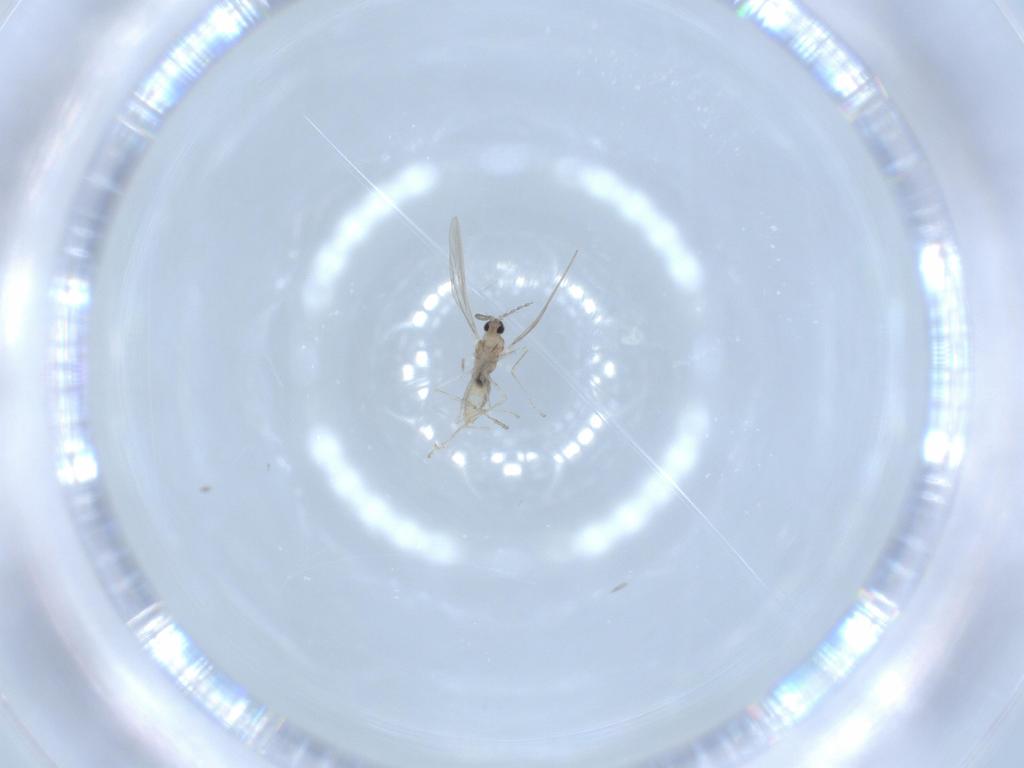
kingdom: Animalia
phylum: Arthropoda
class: Insecta
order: Diptera
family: Cecidomyiidae
